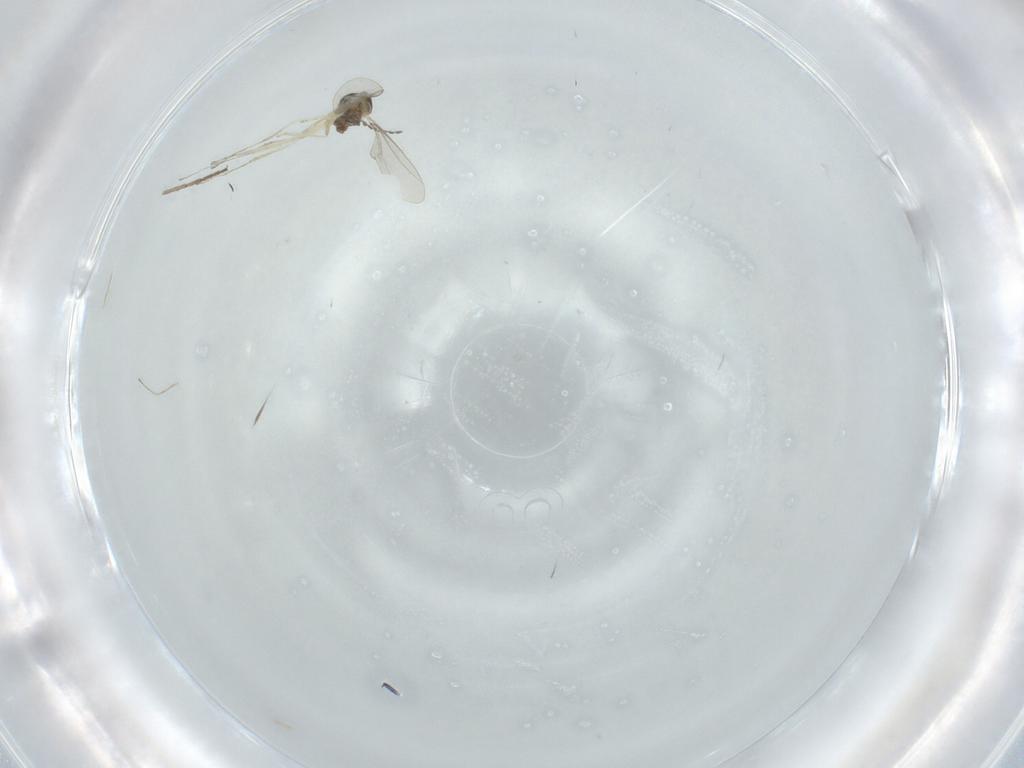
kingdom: Animalia
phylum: Arthropoda
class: Insecta
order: Diptera
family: Cecidomyiidae
